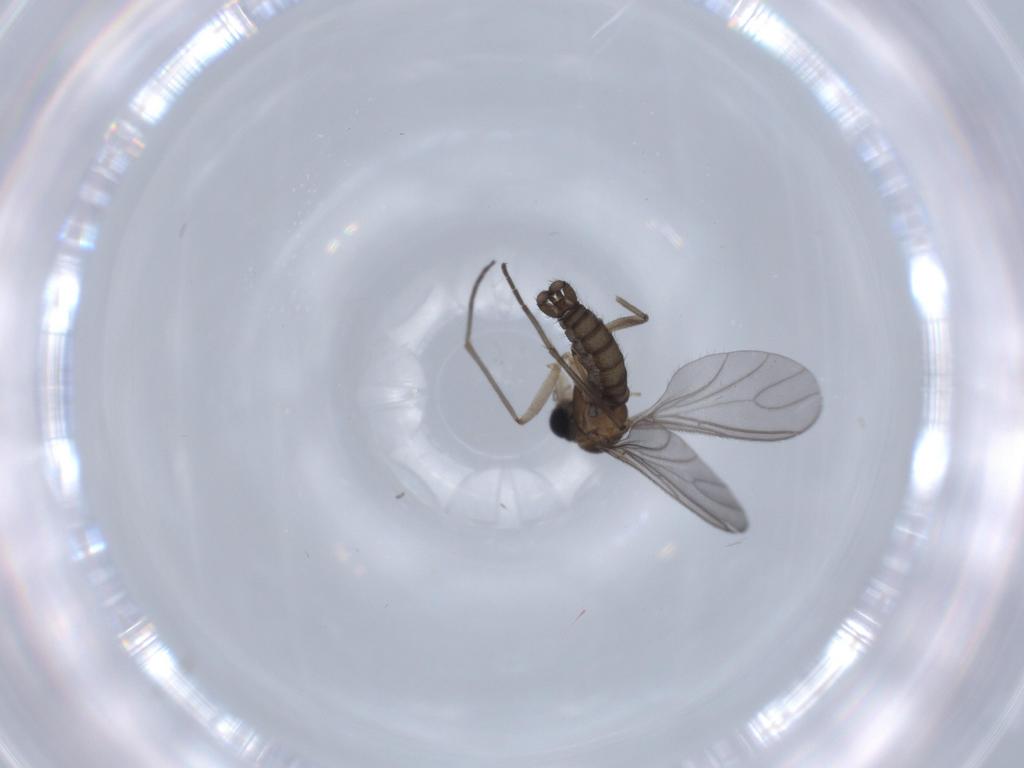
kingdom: Animalia
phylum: Arthropoda
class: Insecta
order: Diptera
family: Sciaridae
